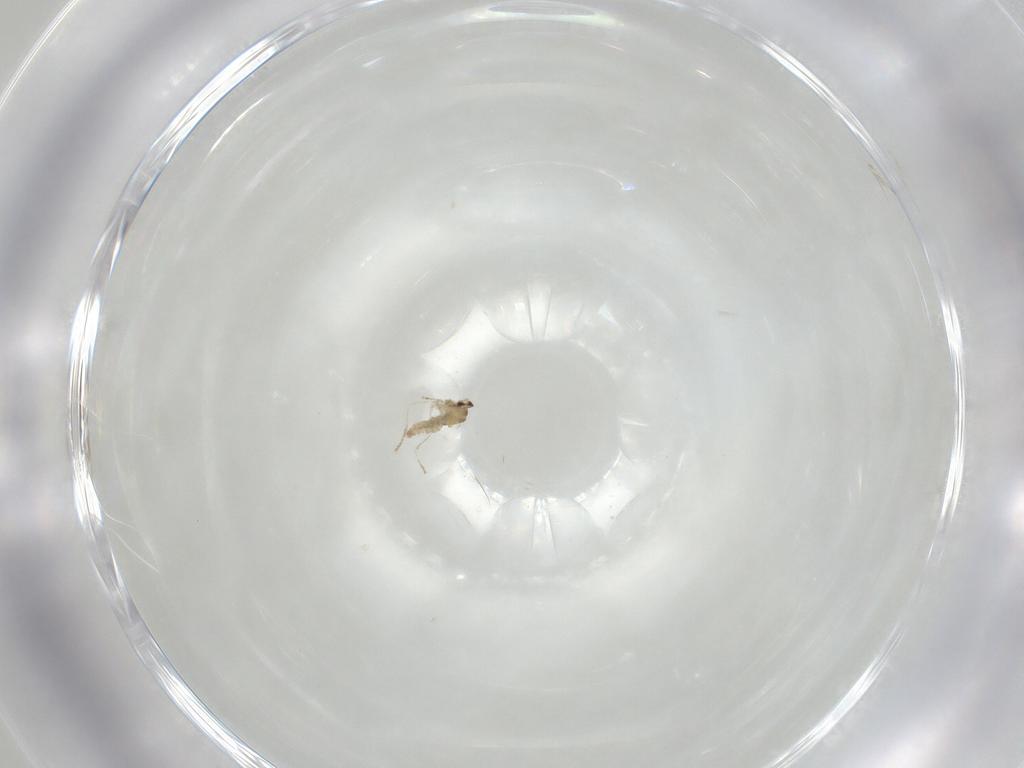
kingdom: Animalia
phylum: Arthropoda
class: Insecta
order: Diptera
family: Cecidomyiidae
